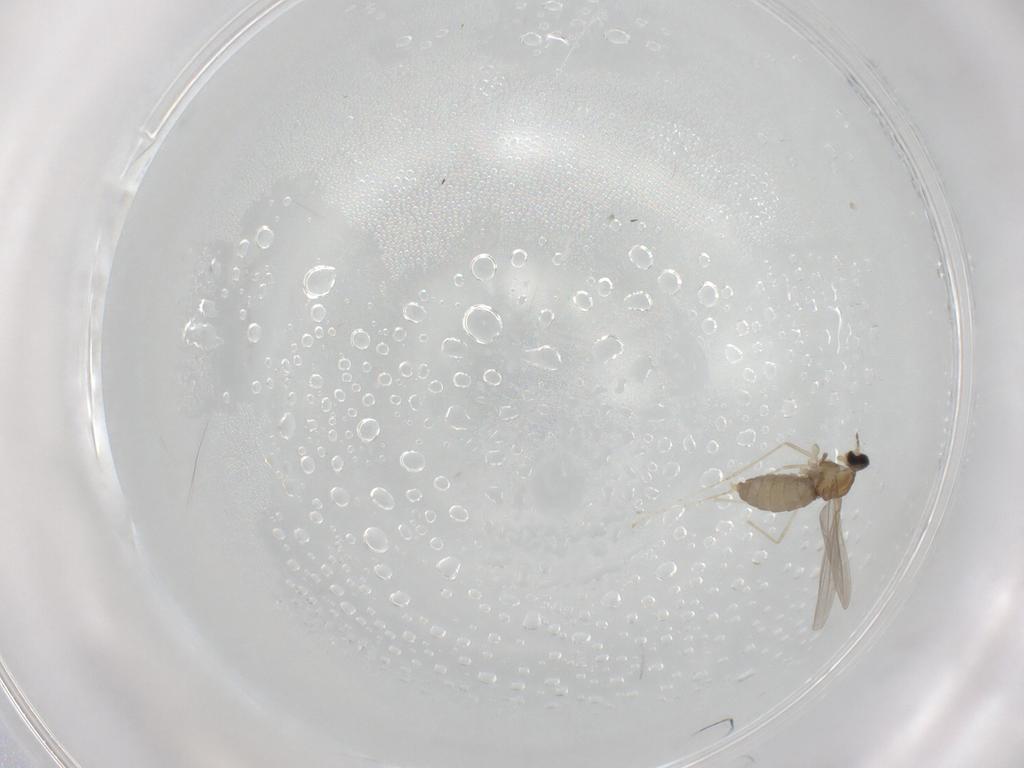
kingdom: Animalia
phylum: Arthropoda
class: Insecta
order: Diptera
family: Cecidomyiidae
